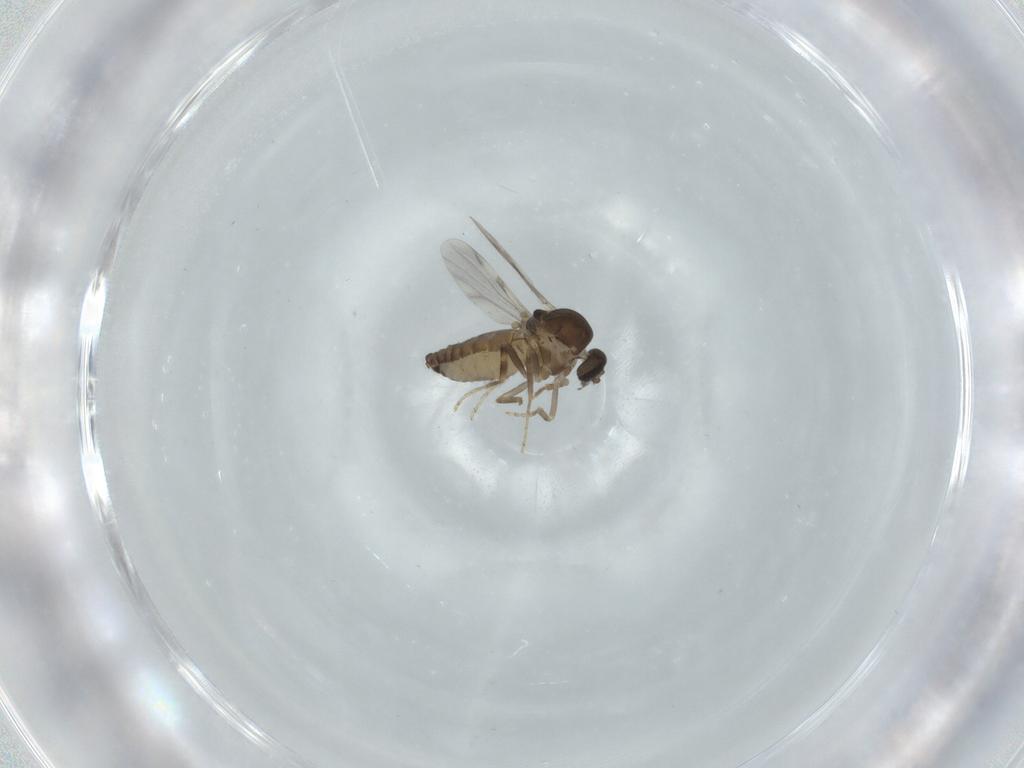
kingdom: Animalia
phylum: Arthropoda
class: Insecta
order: Diptera
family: Ceratopogonidae
